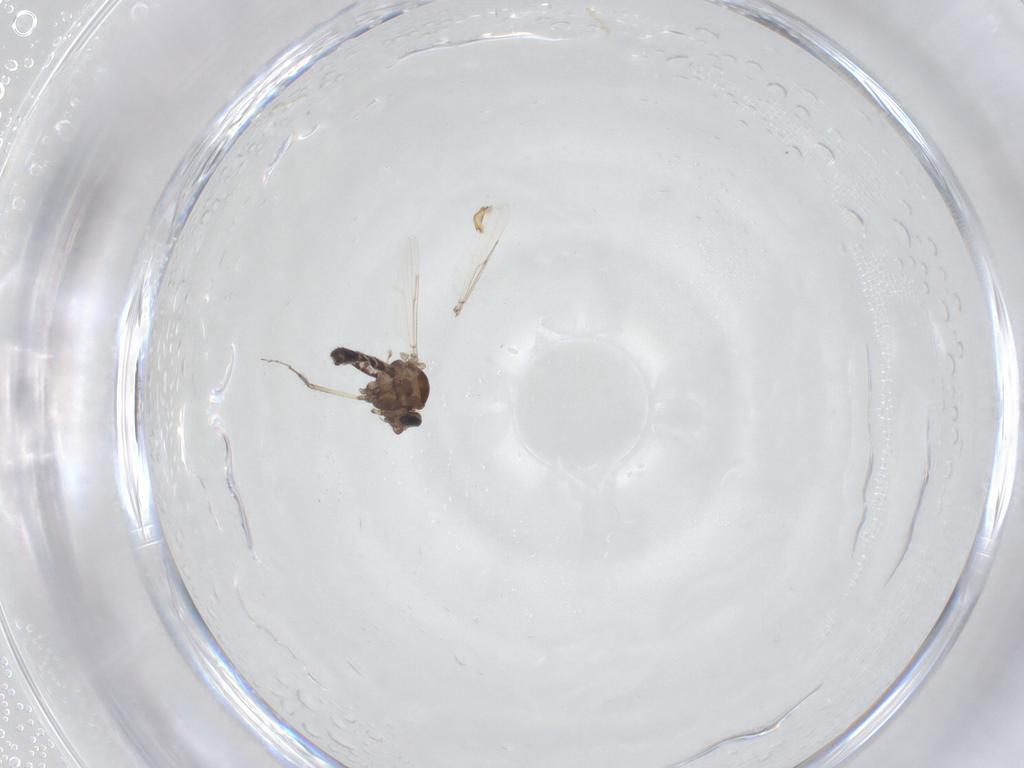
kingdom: Animalia
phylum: Arthropoda
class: Insecta
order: Diptera
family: Ceratopogonidae
